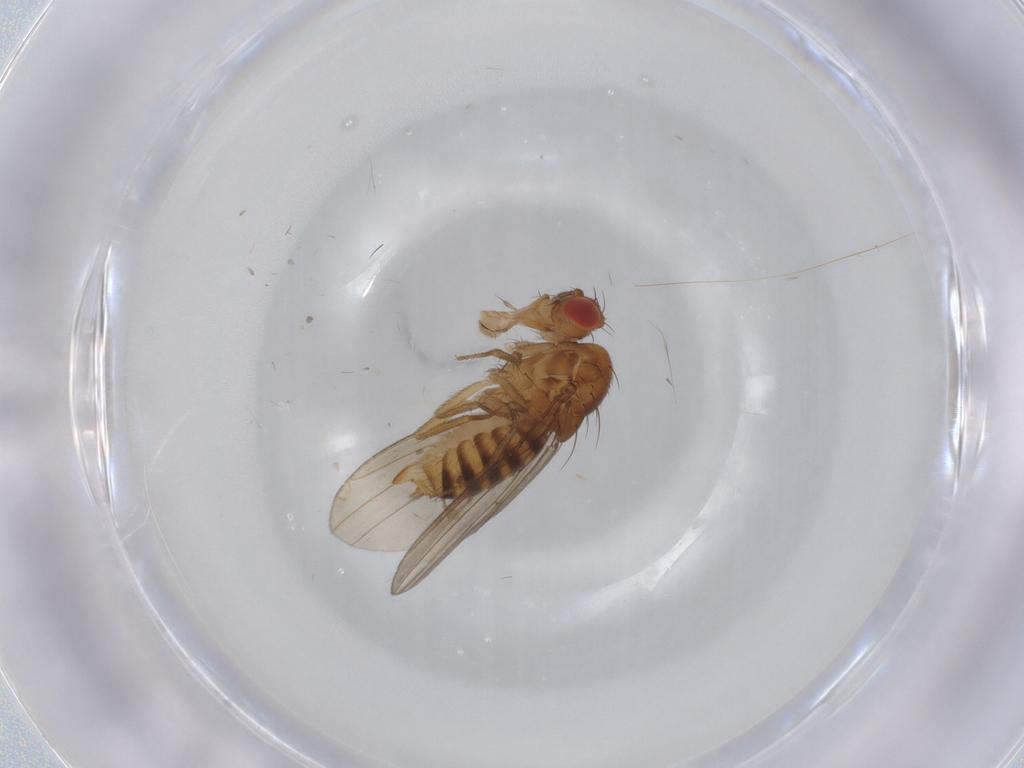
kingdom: Animalia
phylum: Arthropoda
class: Insecta
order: Diptera
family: Drosophilidae
